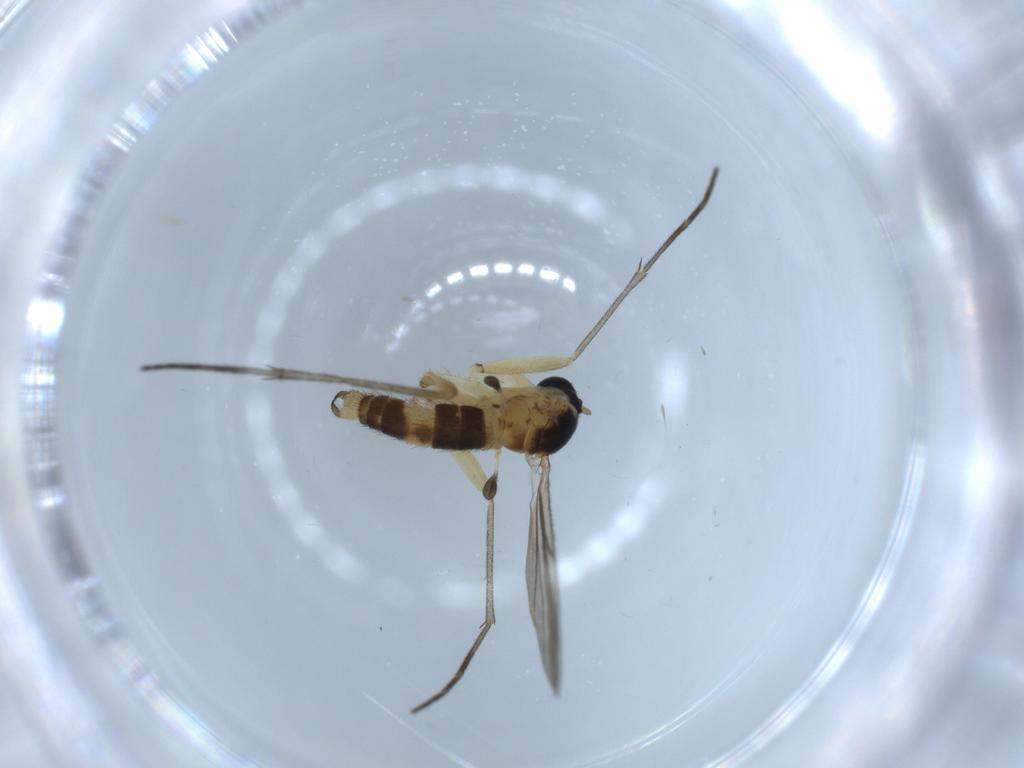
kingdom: Animalia
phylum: Arthropoda
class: Insecta
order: Diptera
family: Sciaridae
